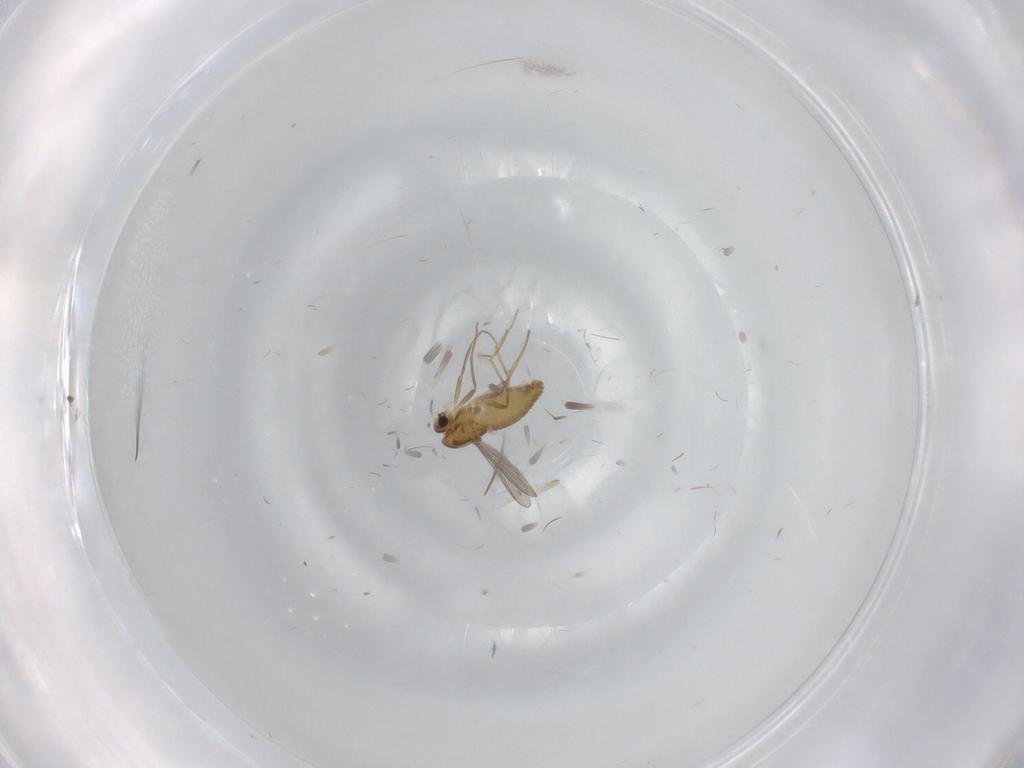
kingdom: Animalia
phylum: Arthropoda
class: Insecta
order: Diptera
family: Chironomidae
